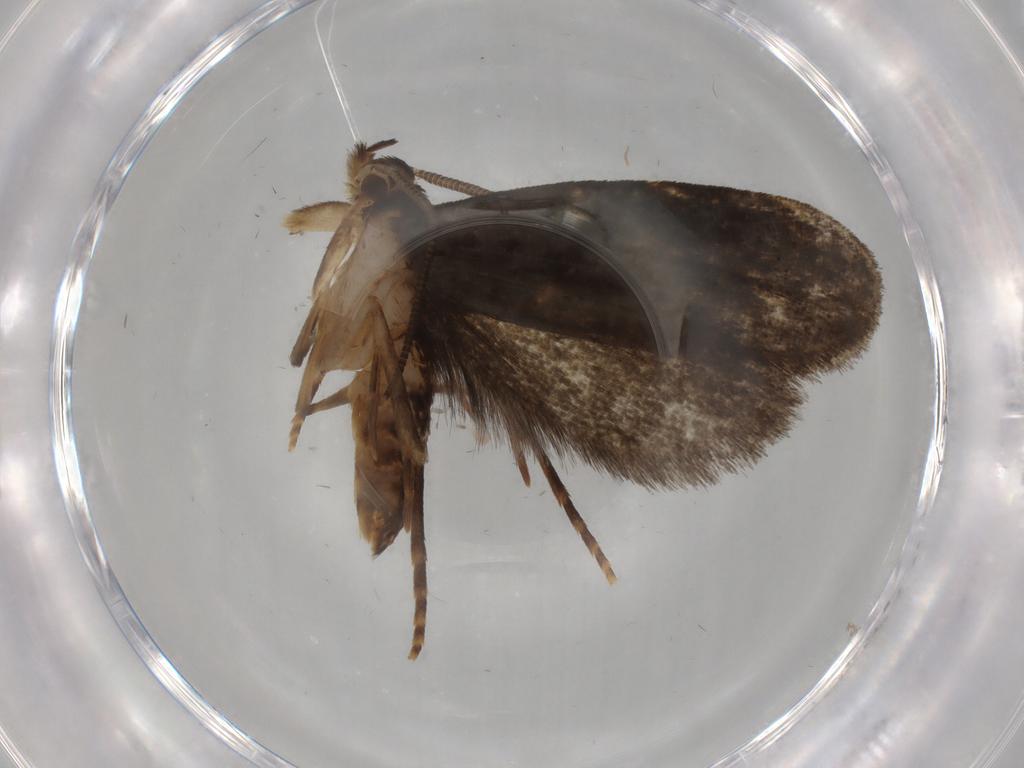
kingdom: Animalia
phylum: Arthropoda
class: Insecta
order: Lepidoptera
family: Dryadaulidae
